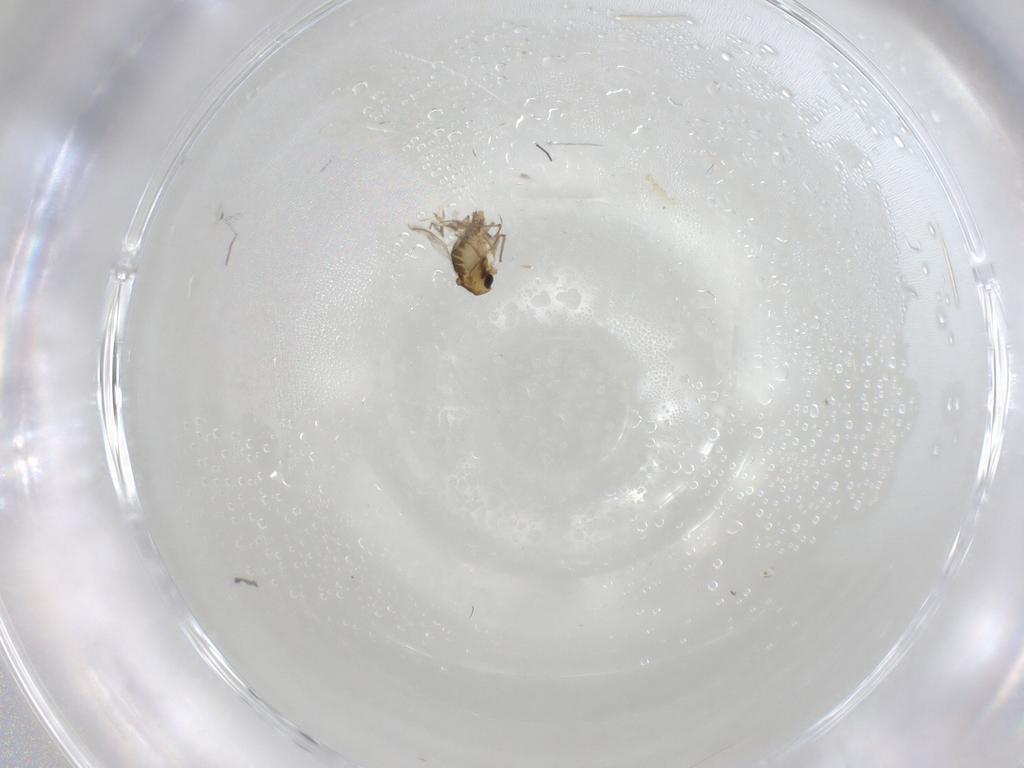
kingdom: Animalia
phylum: Arthropoda
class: Insecta
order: Diptera
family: Chironomidae
